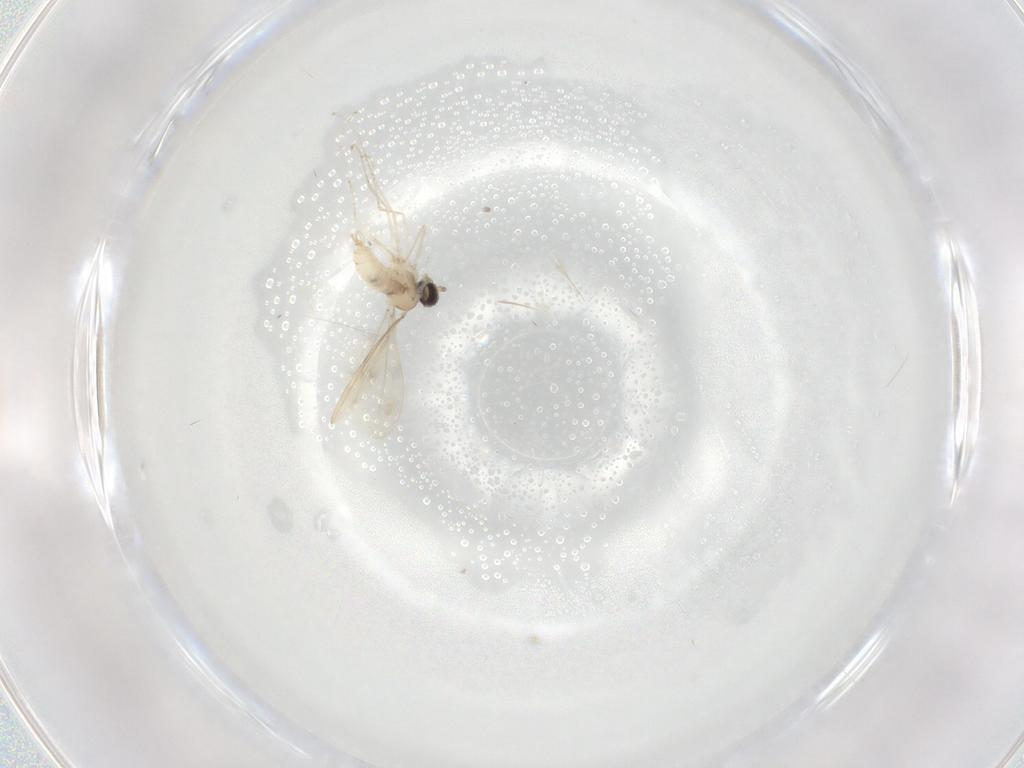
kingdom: Animalia
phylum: Arthropoda
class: Insecta
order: Diptera
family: Cecidomyiidae
